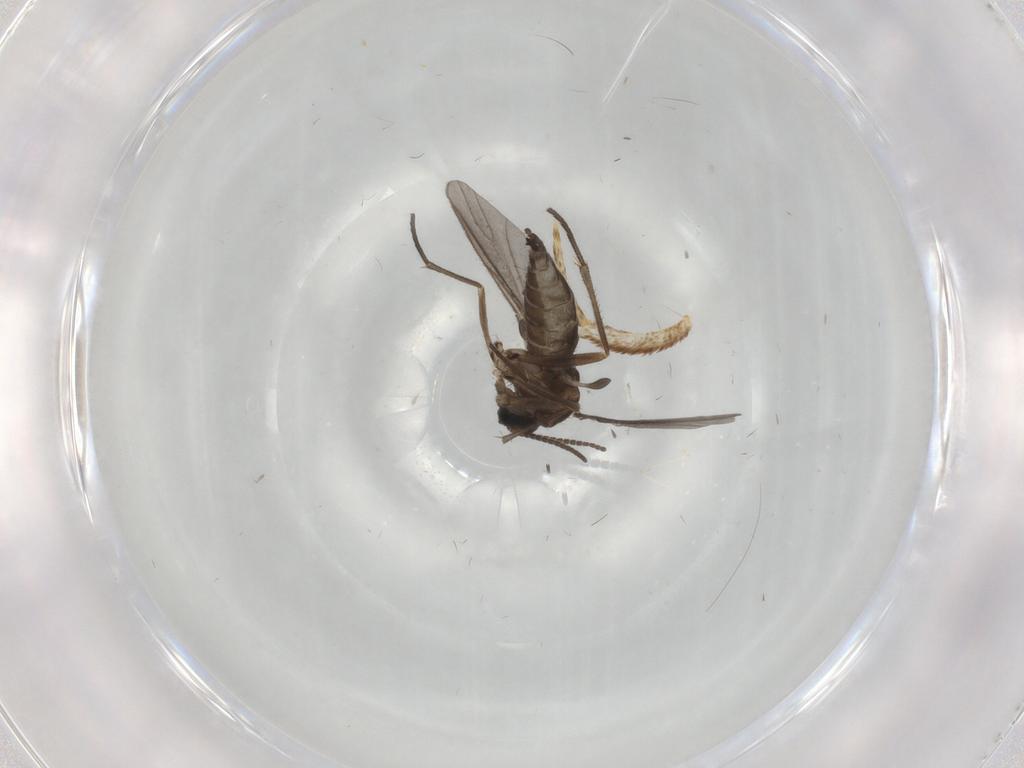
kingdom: Animalia
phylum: Arthropoda
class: Insecta
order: Diptera
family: Sciaridae
